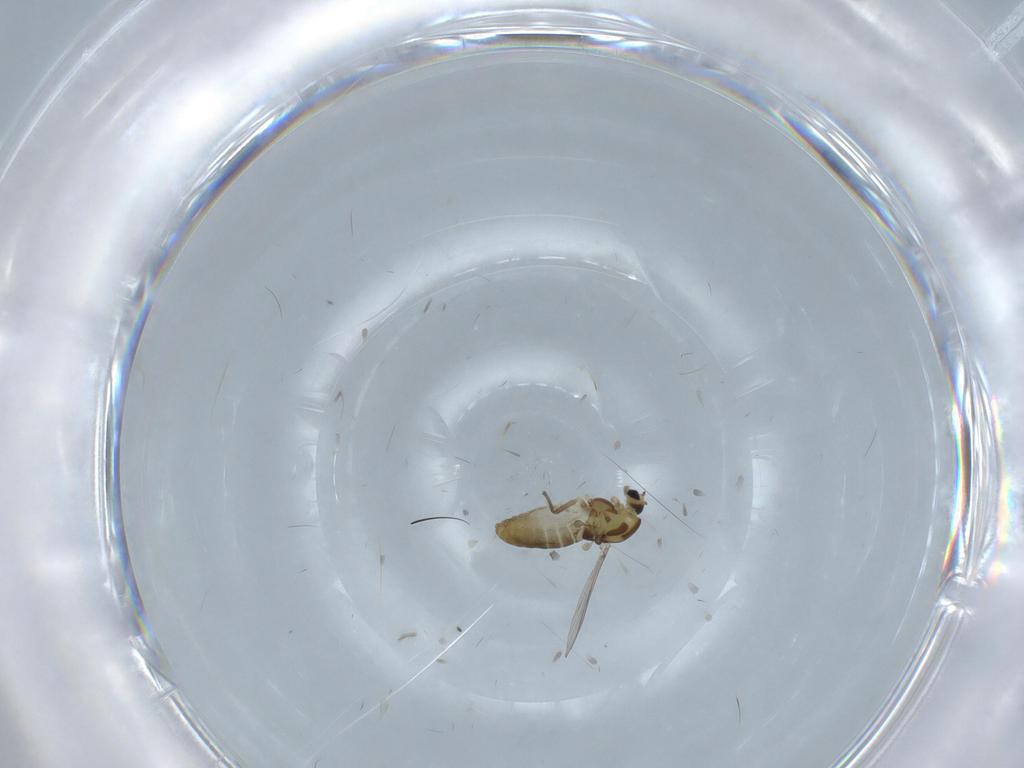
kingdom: Animalia
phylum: Arthropoda
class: Insecta
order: Diptera
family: Chironomidae
